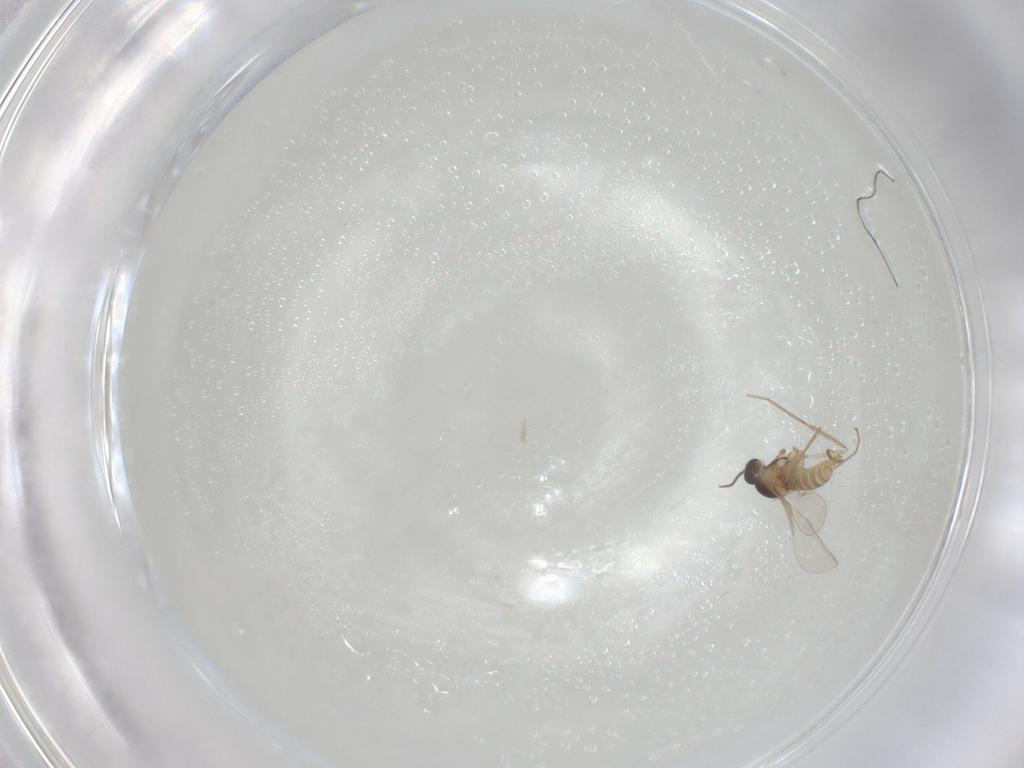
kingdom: Animalia
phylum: Arthropoda
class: Insecta
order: Diptera
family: Cecidomyiidae
